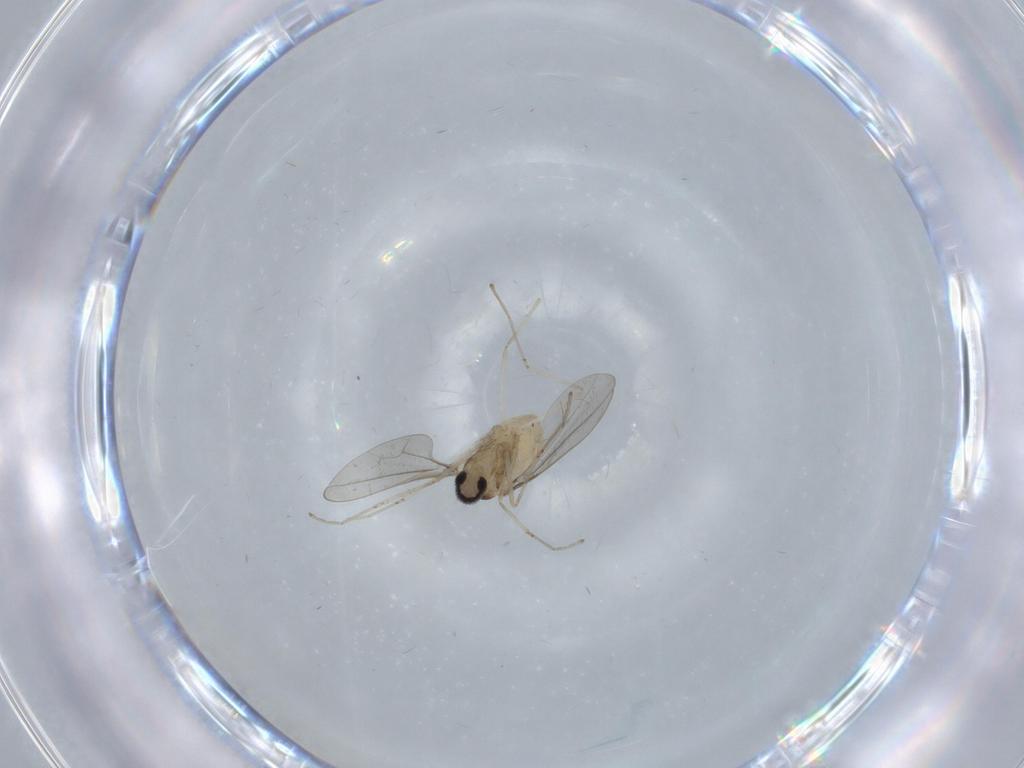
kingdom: Animalia
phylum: Arthropoda
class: Insecta
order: Diptera
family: Cecidomyiidae
